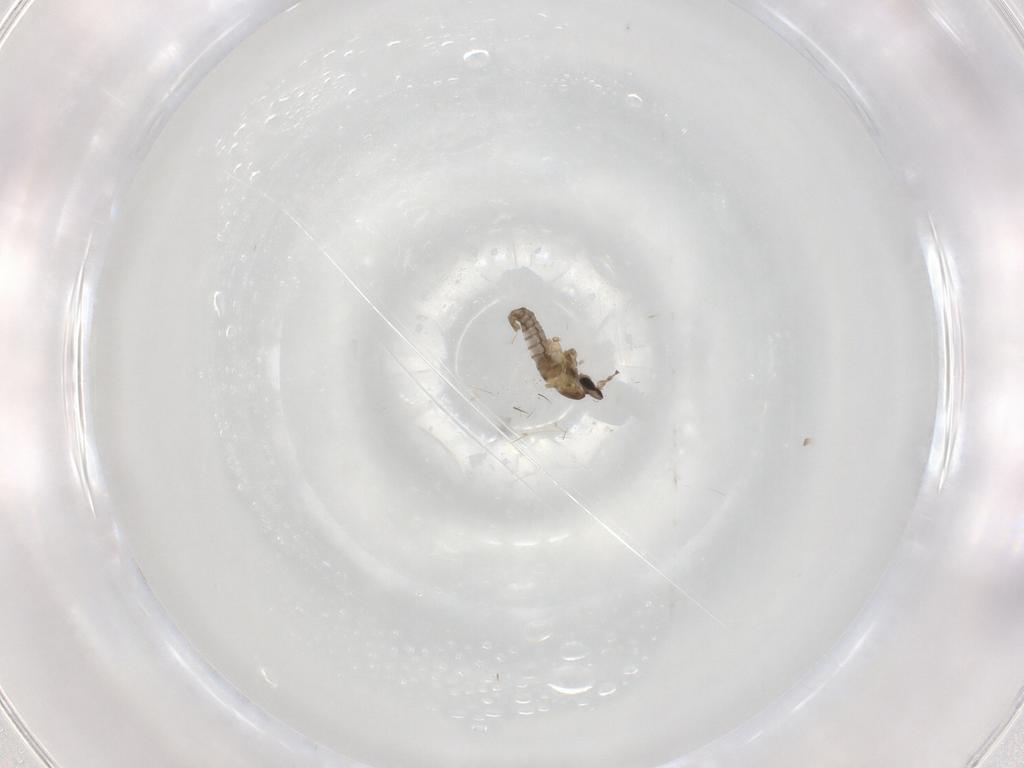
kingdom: Animalia
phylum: Arthropoda
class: Insecta
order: Diptera
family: Cecidomyiidae
